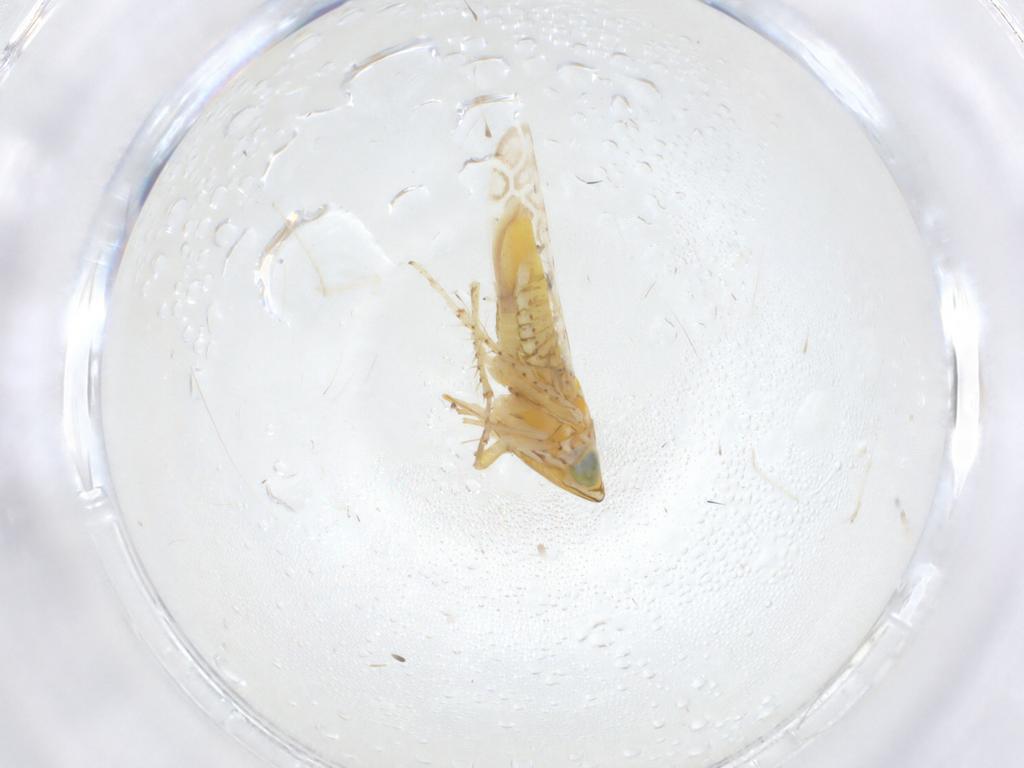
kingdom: Animalia
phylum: Arthropoda
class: Insecta
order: Hemiptera
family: Cicadellidae
